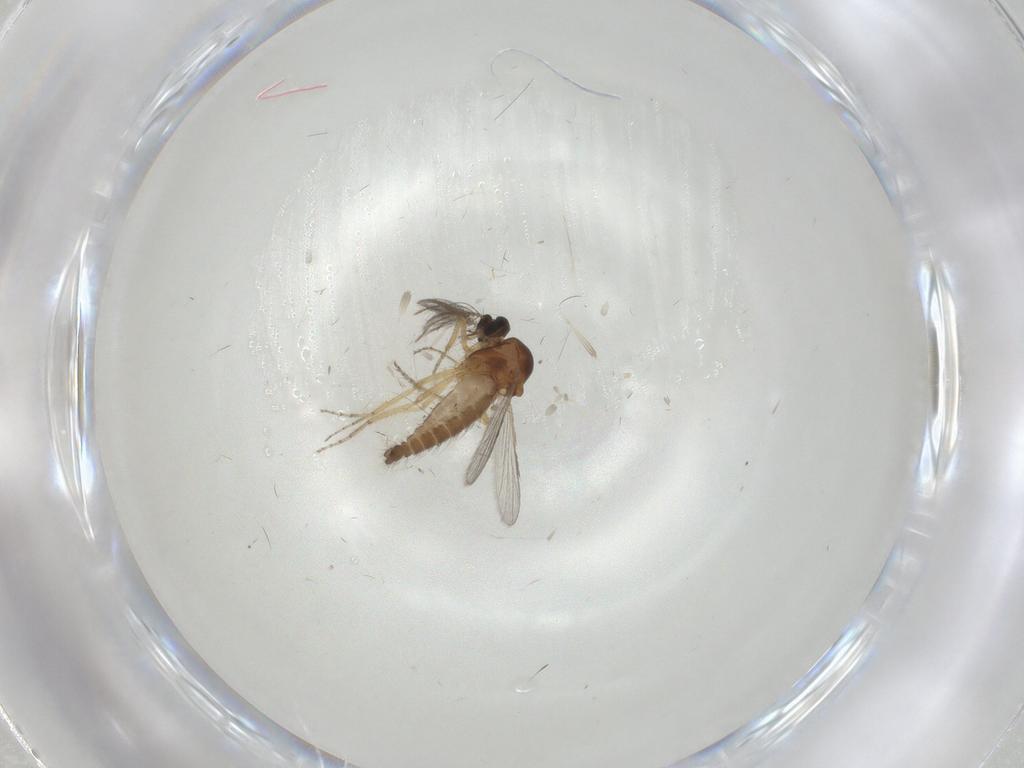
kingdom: Animalia
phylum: Arthropoda
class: Insecta
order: Diptera
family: Ceratopogonidae
